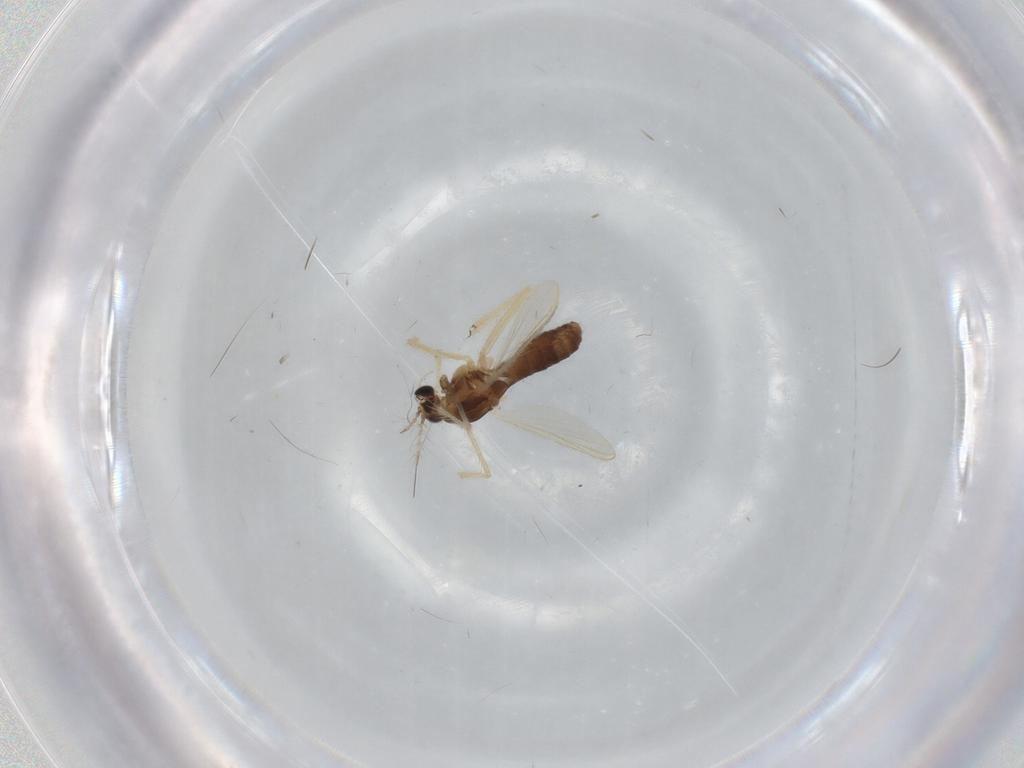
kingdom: Animalia
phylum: Arthropoda
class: Insecta
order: Diptera
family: Chironomidae
